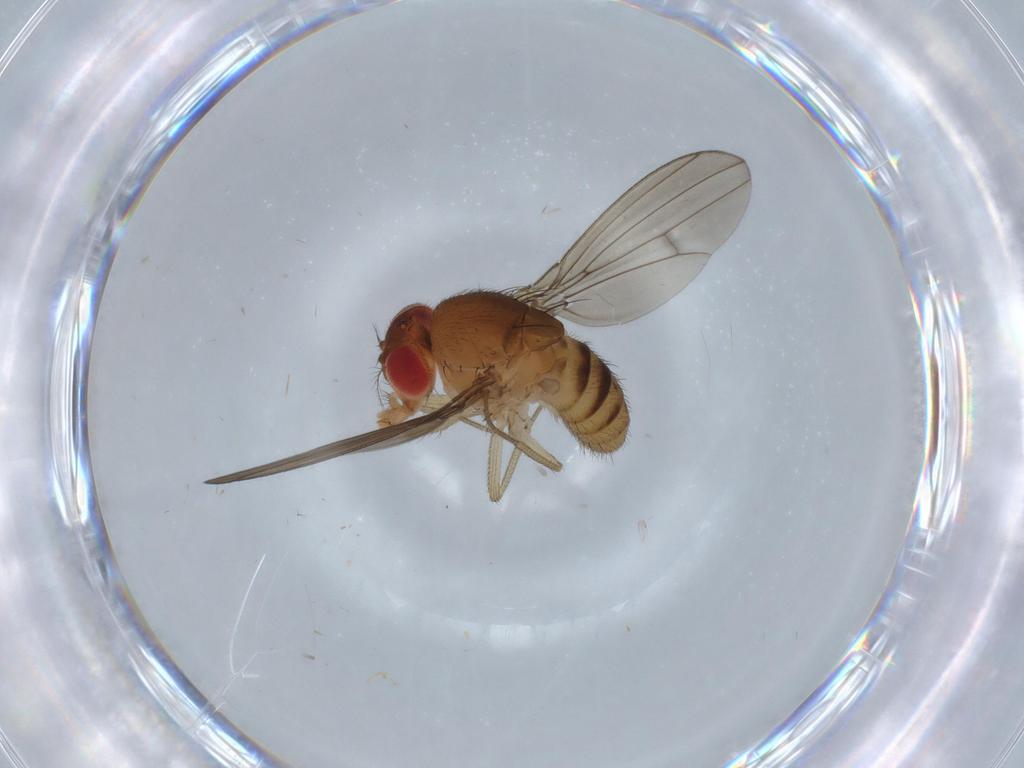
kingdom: Animalia
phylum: Arthropoda
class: Insecta
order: Diptera
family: Drosophilidae
